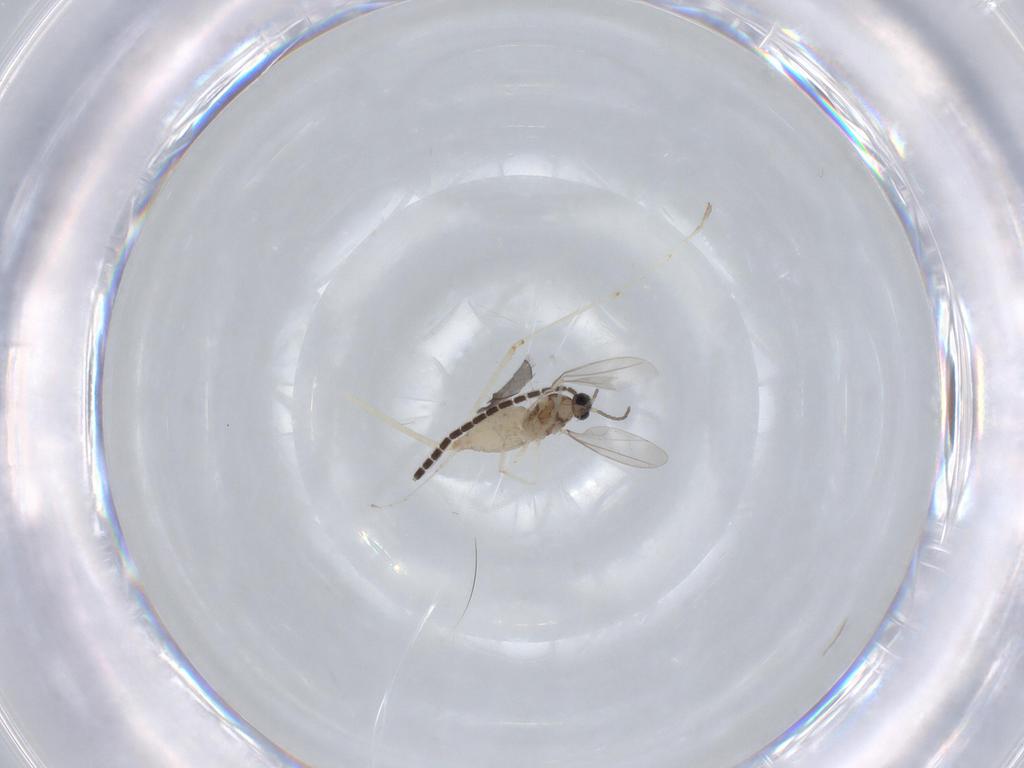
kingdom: Animalia
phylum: Arthropoda
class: Insecta
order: Diptera
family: Sciaridae
